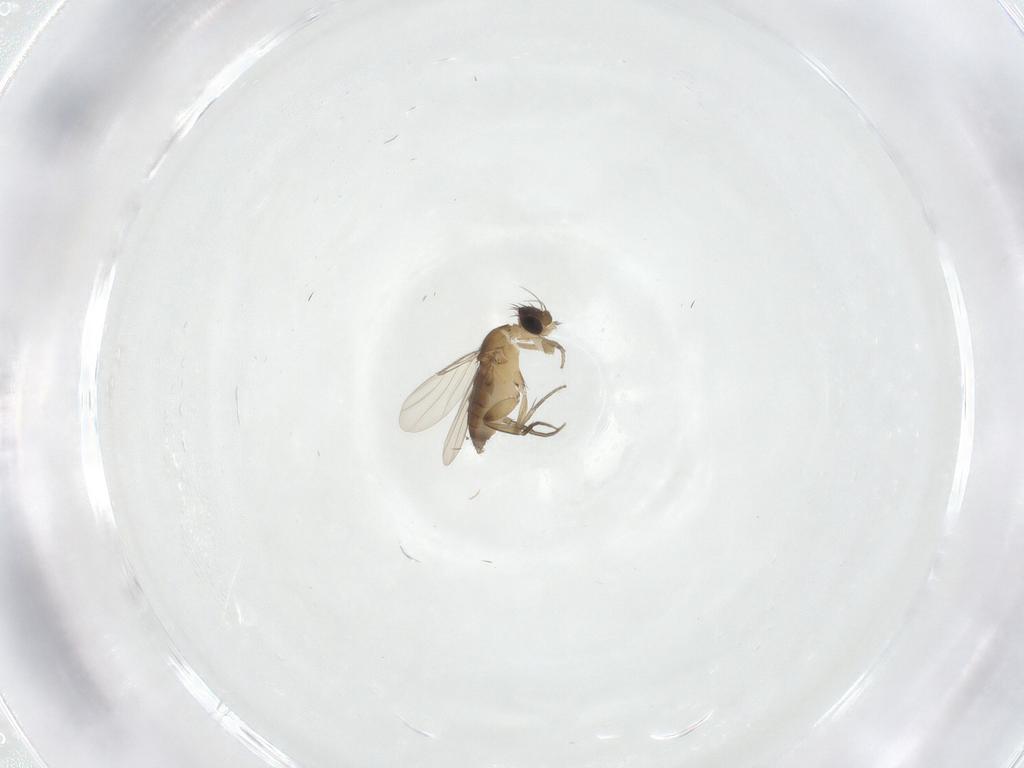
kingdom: Animalia
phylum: Arthropoda
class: Insecta
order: Diptera
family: Phoridae
